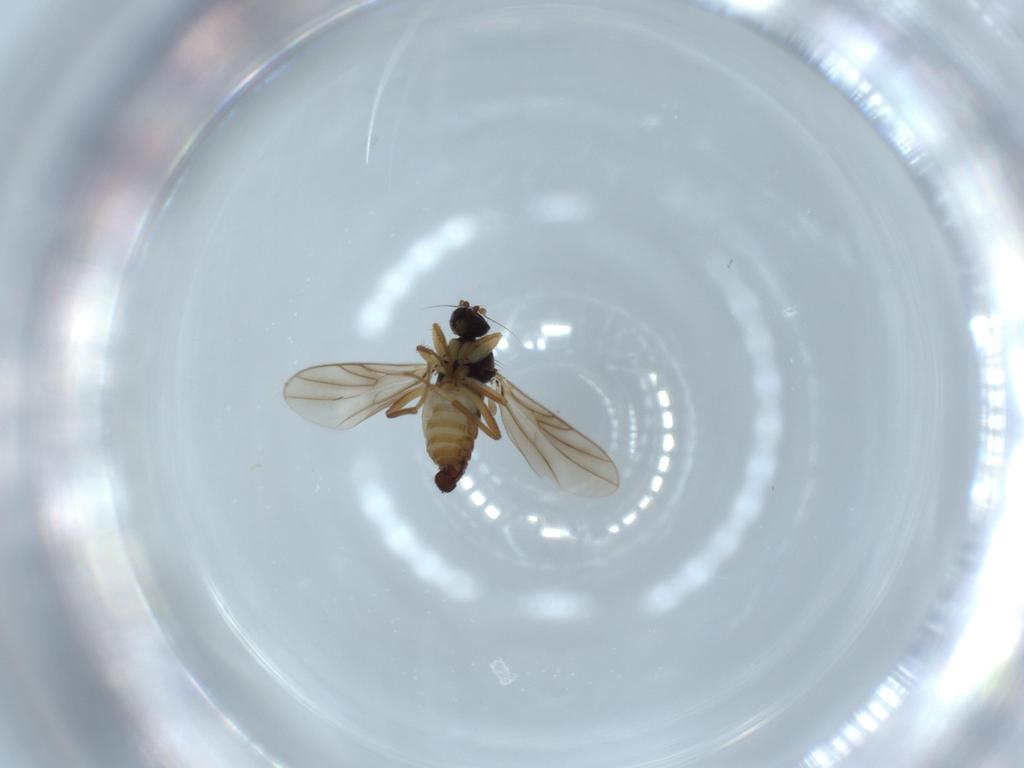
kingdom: Animalia
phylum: Arthropoda
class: Insecta
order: Diptera
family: Hybotidae
